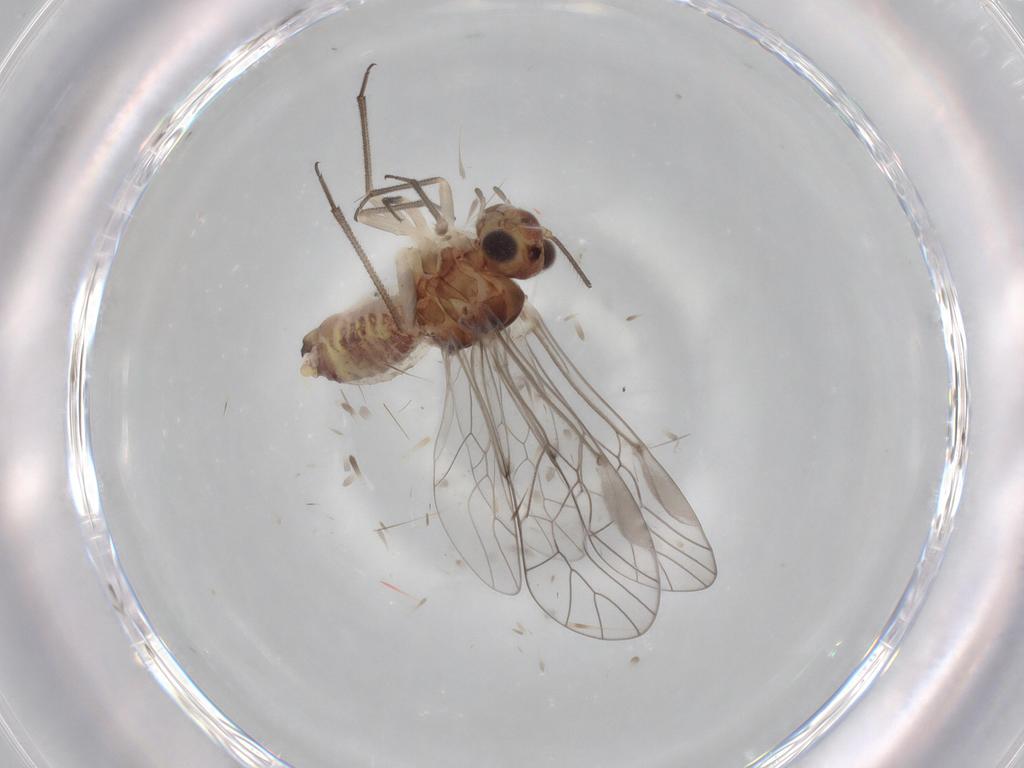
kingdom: Animalia
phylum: Arthropoda
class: Insecta
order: Psocodea
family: Psocidae
